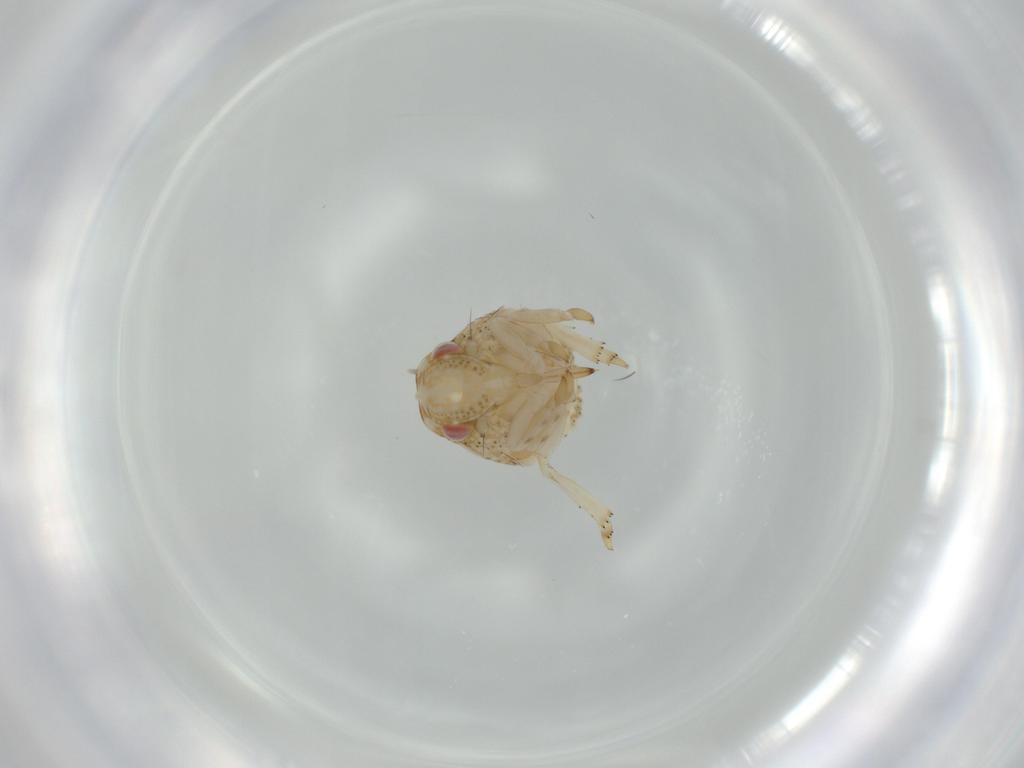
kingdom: Animalia
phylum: Arthropoda
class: Insecta
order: Hemiptera
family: Acanaloniidae
